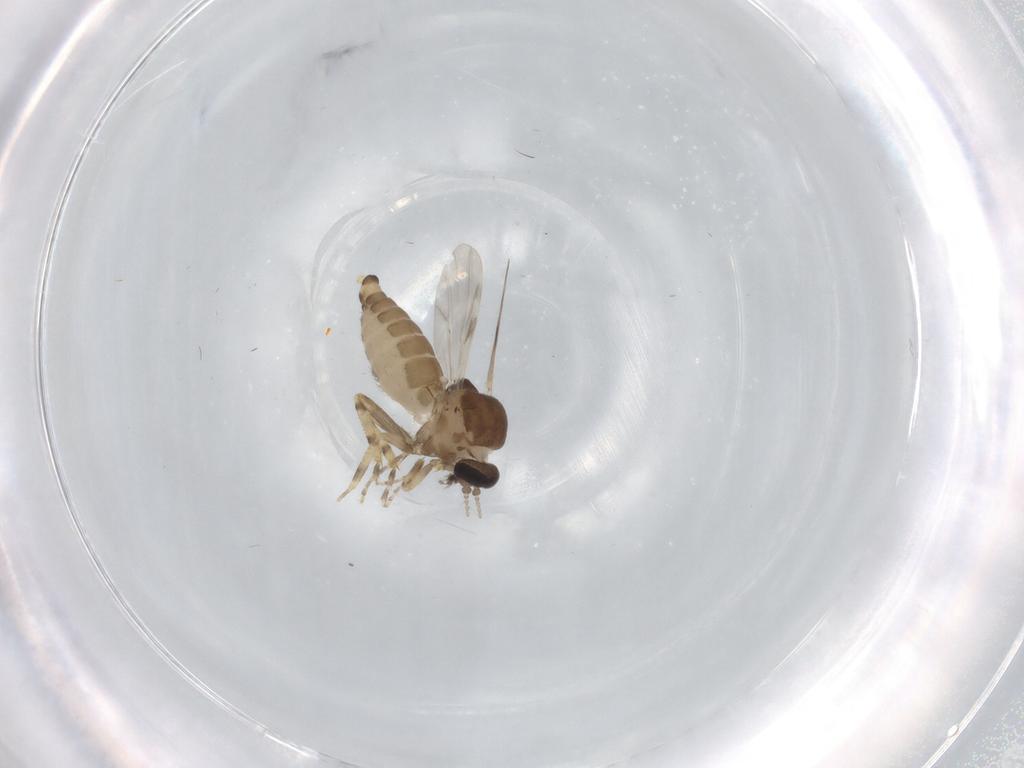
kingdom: Animalia
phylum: Arthropoda
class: Insecta
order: Diptera
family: Ceratopogonidae
